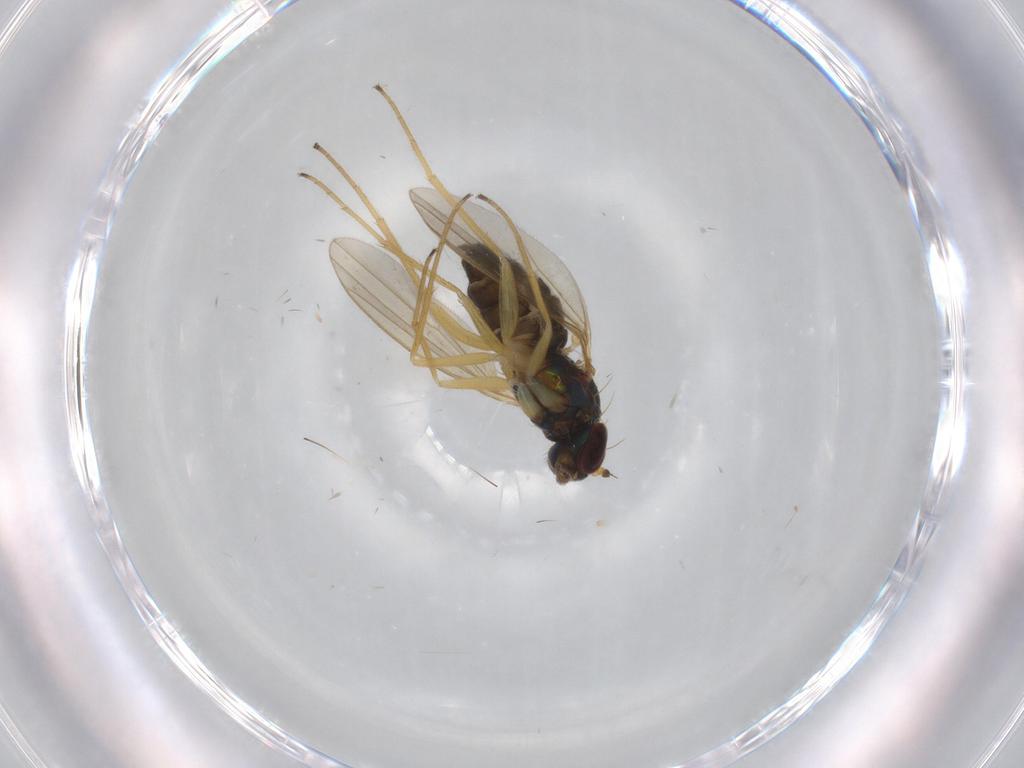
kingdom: Animalia
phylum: Arthropoda
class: Insecta
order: Diptera
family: Dolichopodidae
